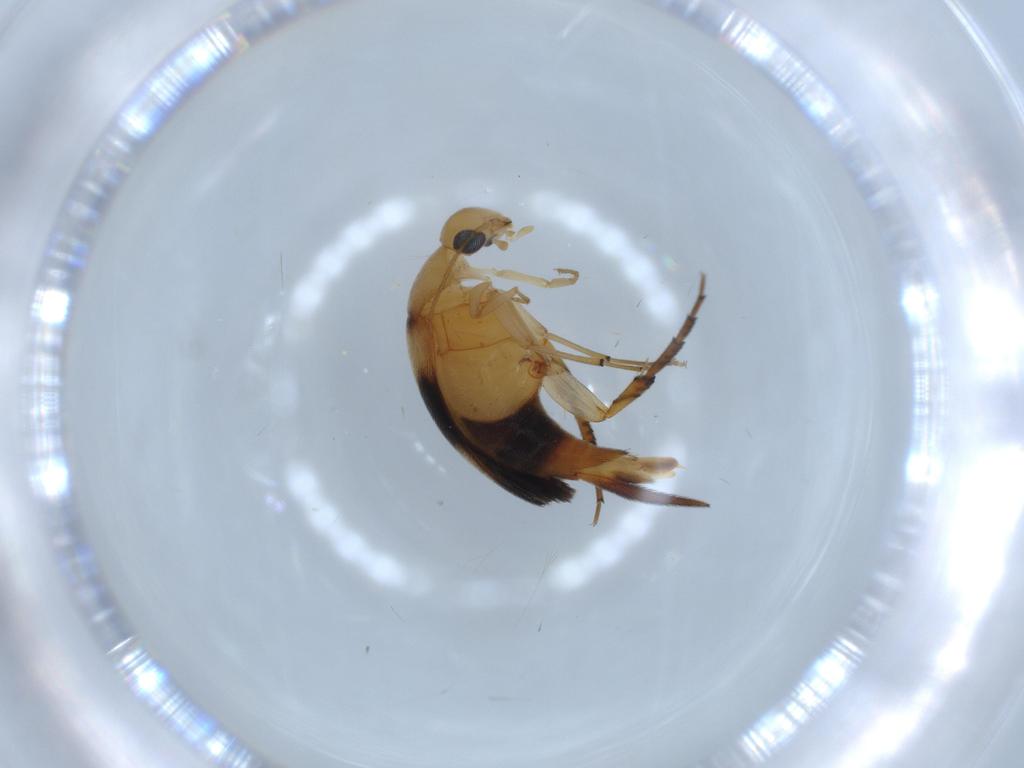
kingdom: Animalia
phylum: Arthropoda
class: Insecta
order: Coleoptera
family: Mordellidae
